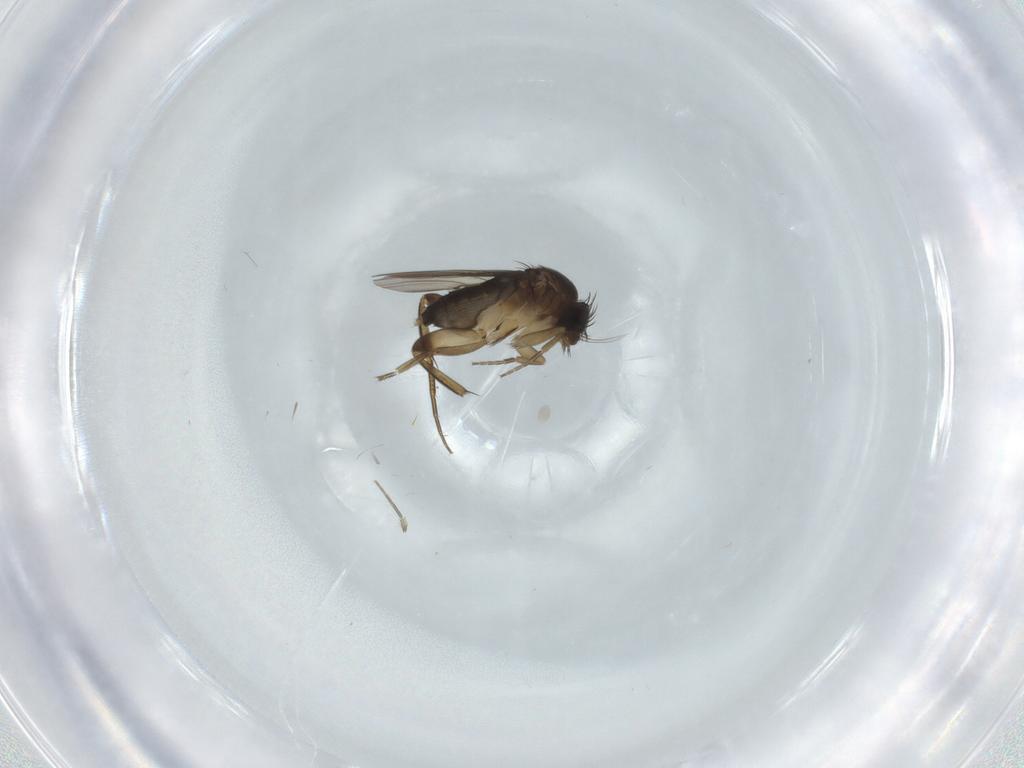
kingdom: Animalia
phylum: Arthropoda
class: Insecta
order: Diptera
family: Phoridae
